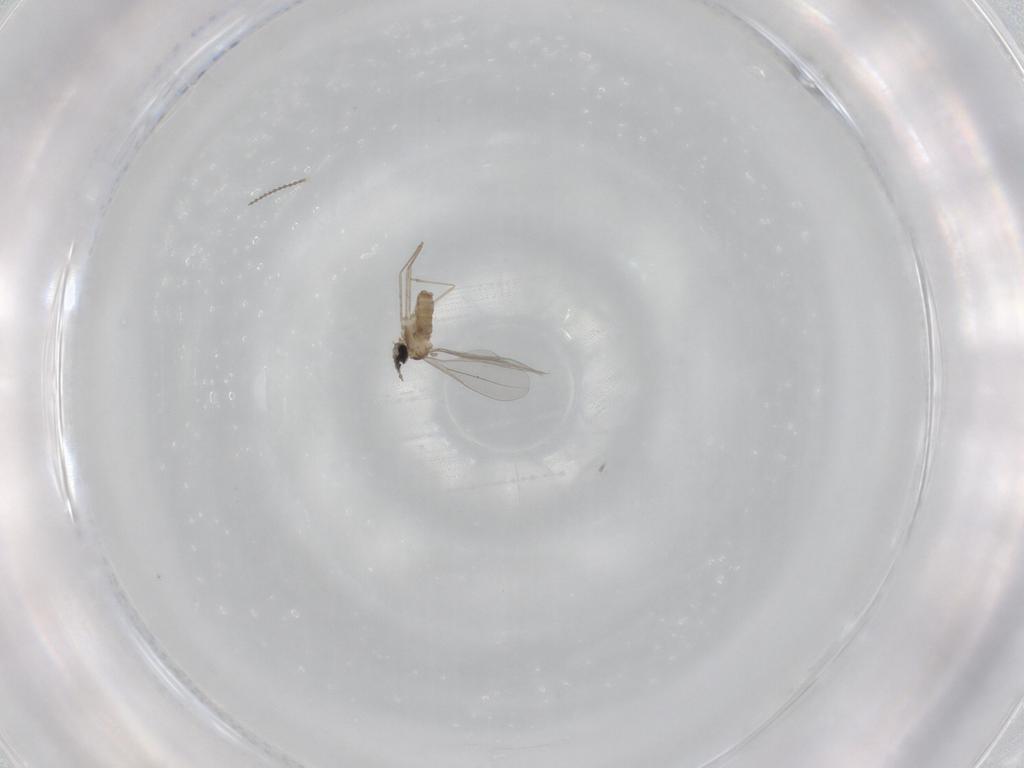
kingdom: Animalia
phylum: Arthropoda
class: Insecta
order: Diptera
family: Cecidomyiidae
